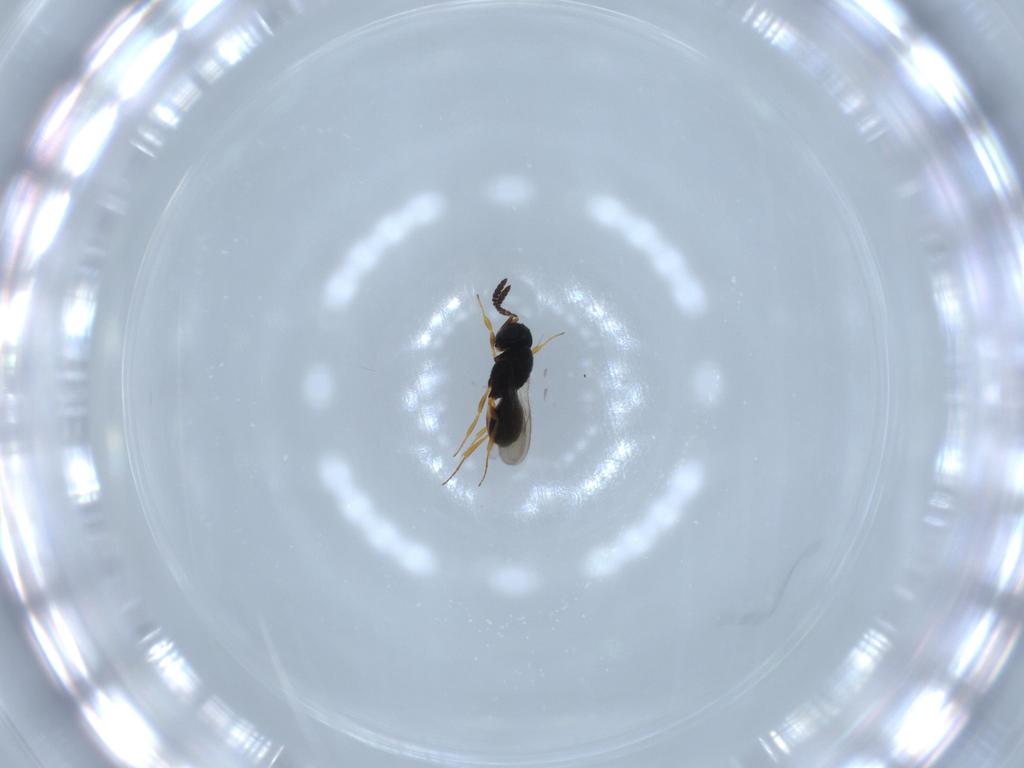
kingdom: Animalia
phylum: Arthropoda
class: Insecta
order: Hymenoptera
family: Scelionidae
